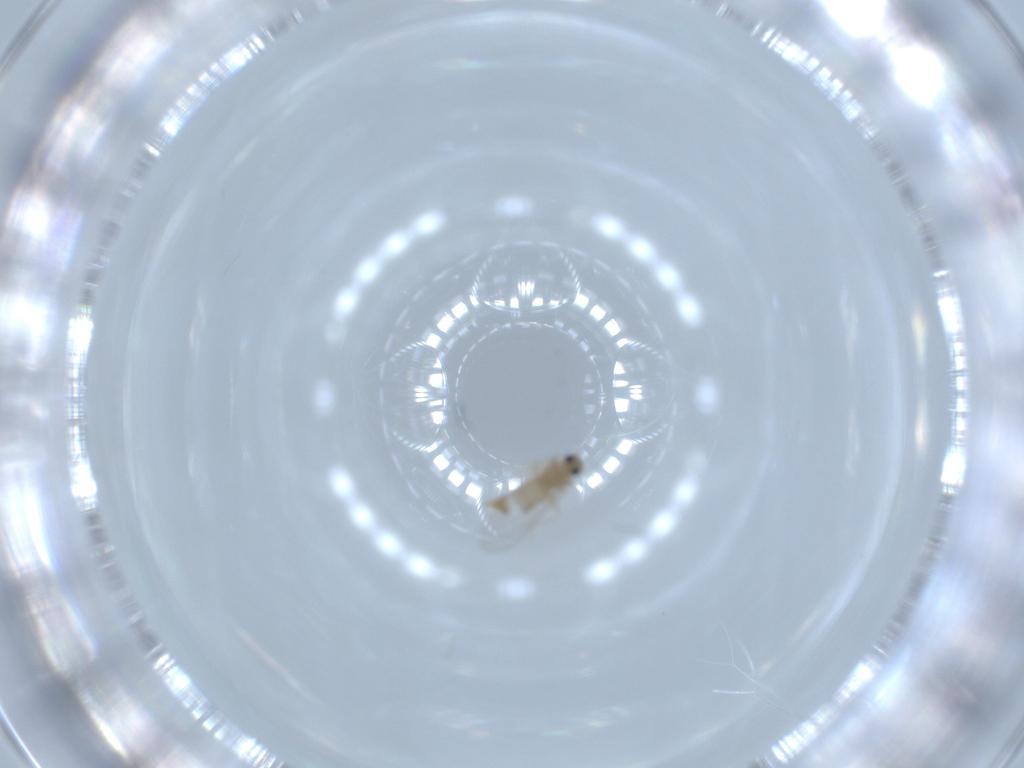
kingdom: Animalia
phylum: Arthropoda
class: Insecta
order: Diptera
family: Cecidomyiidae
